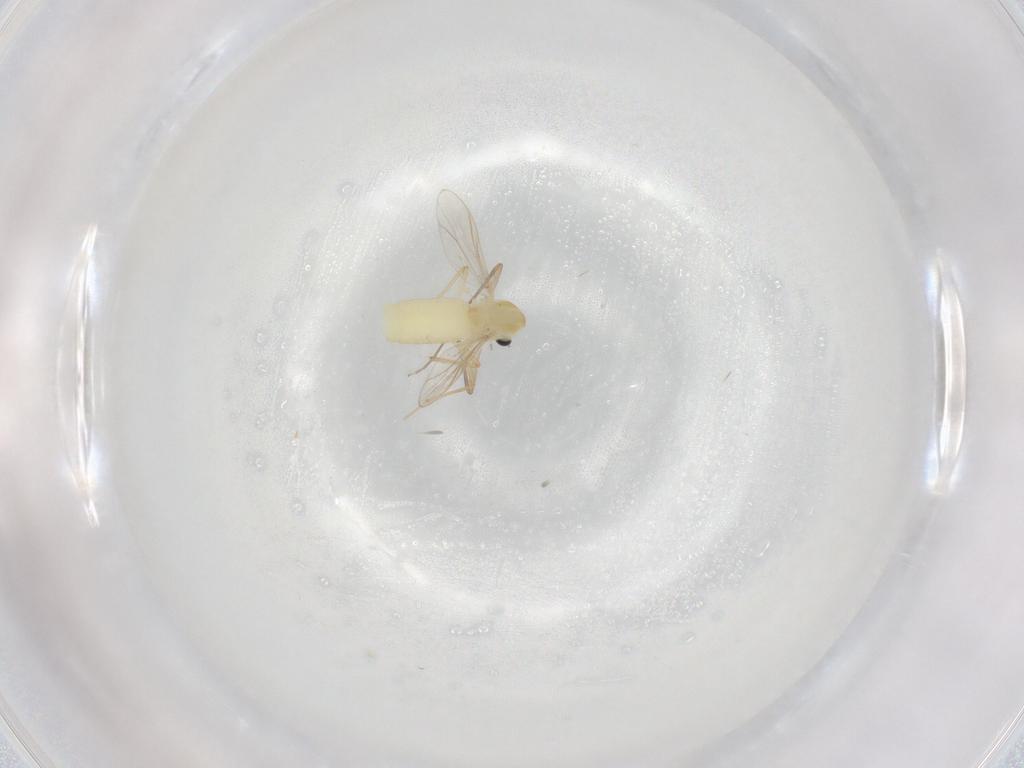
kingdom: Animalia
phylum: Arthropoda
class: Insecta
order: Diptera
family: Chironomidae
